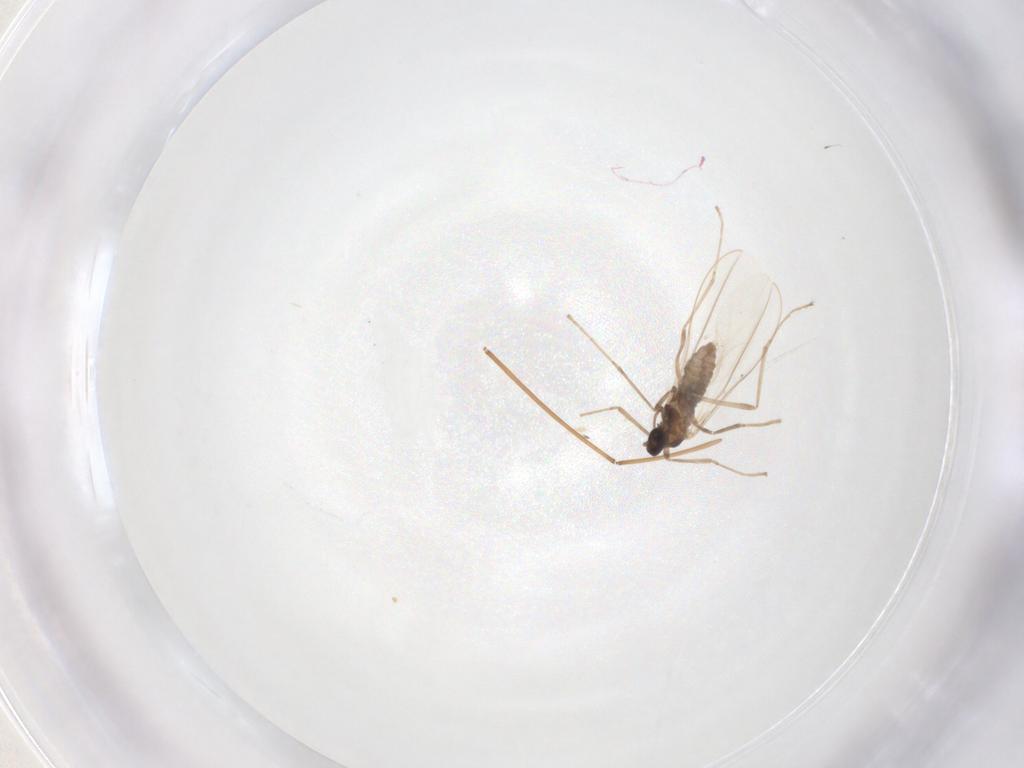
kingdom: Animalia
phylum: Arthropoda
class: Insecta
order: Diptera
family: Cecidomyiidae
